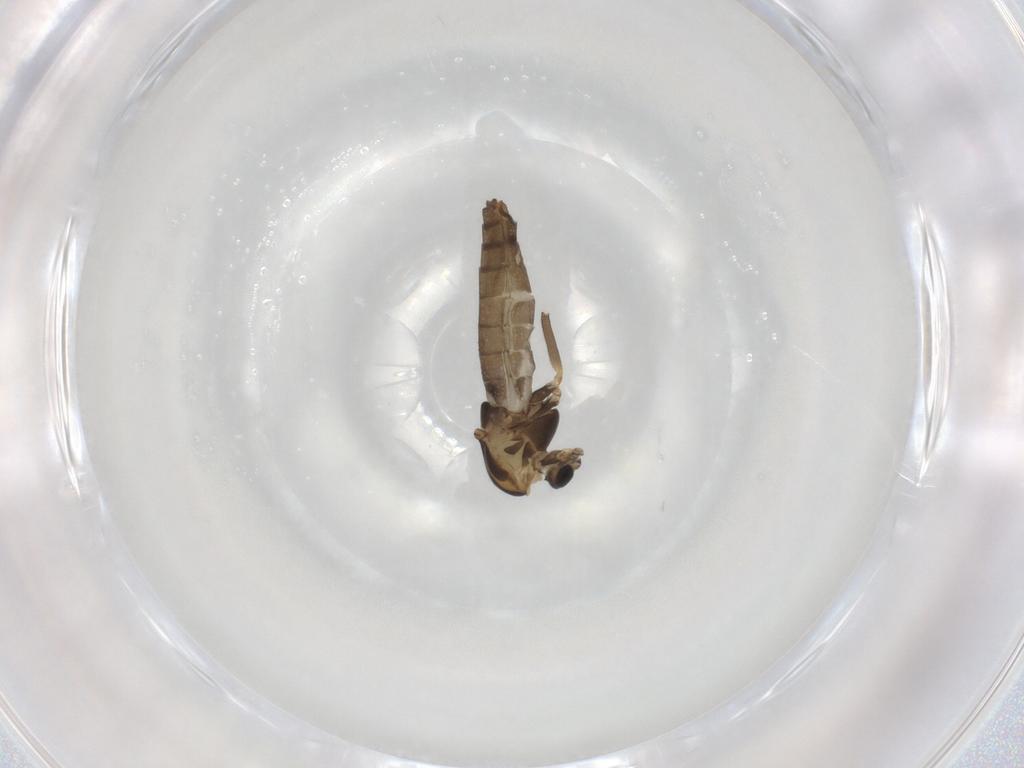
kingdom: Animalia
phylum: Arthropoda
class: Insecta
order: Diptera
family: Chironomidae
